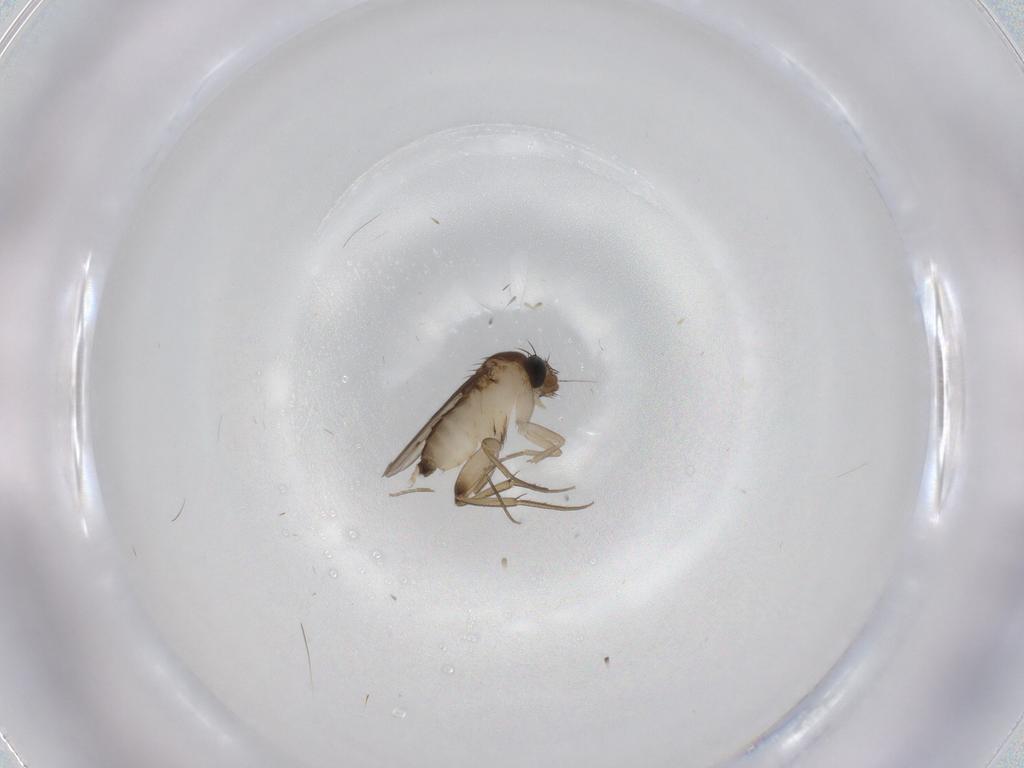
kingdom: Animalia
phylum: Arthropoda
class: Insecta
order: Diptera
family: Phoridae
